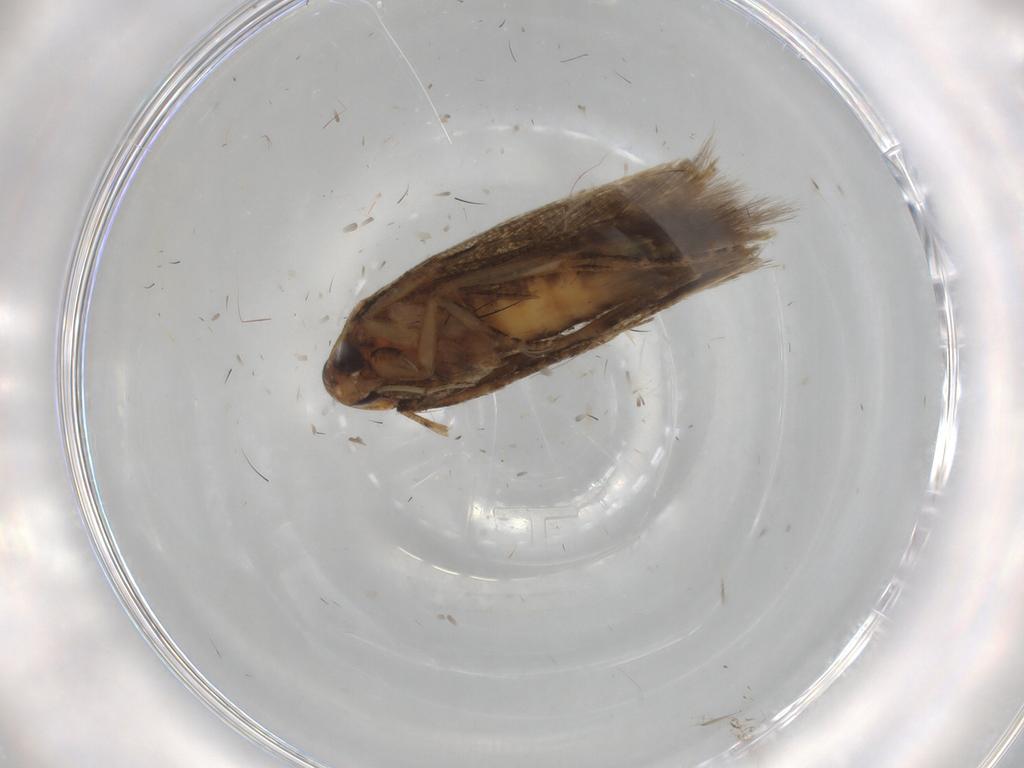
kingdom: Animalia
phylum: Arthropoda
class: Insecta
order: Lepidoptera
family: Cosmopterigidae
